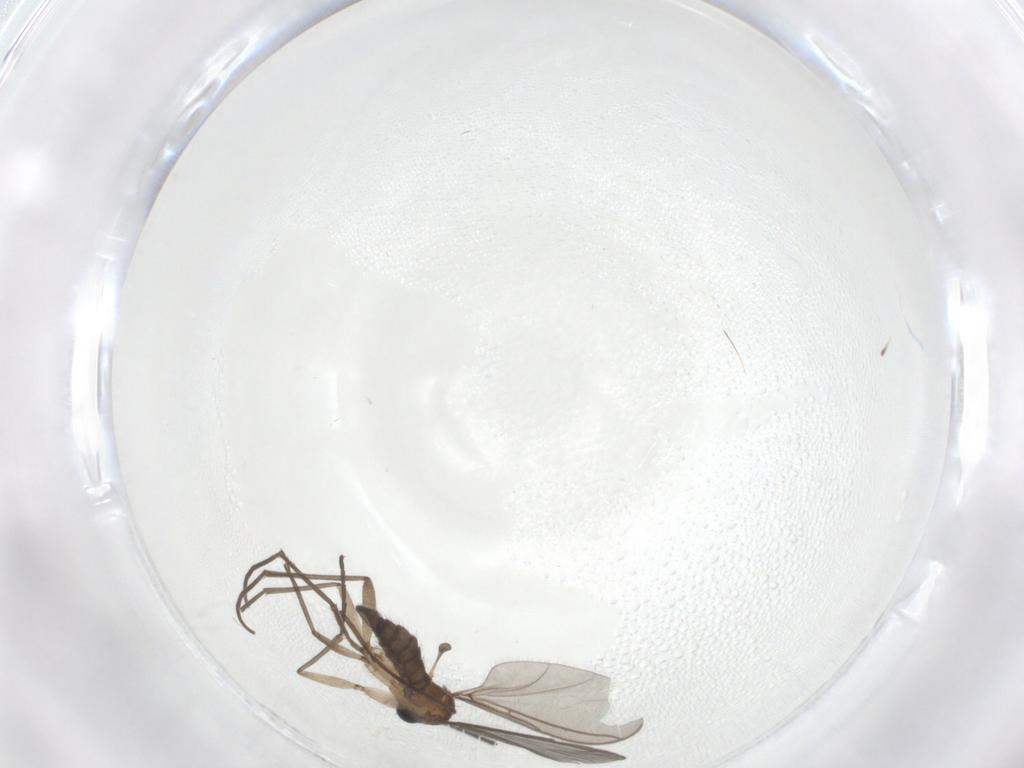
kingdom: Animalia
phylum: Arthropoda
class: Insecta
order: Diptera
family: Sciaridae
